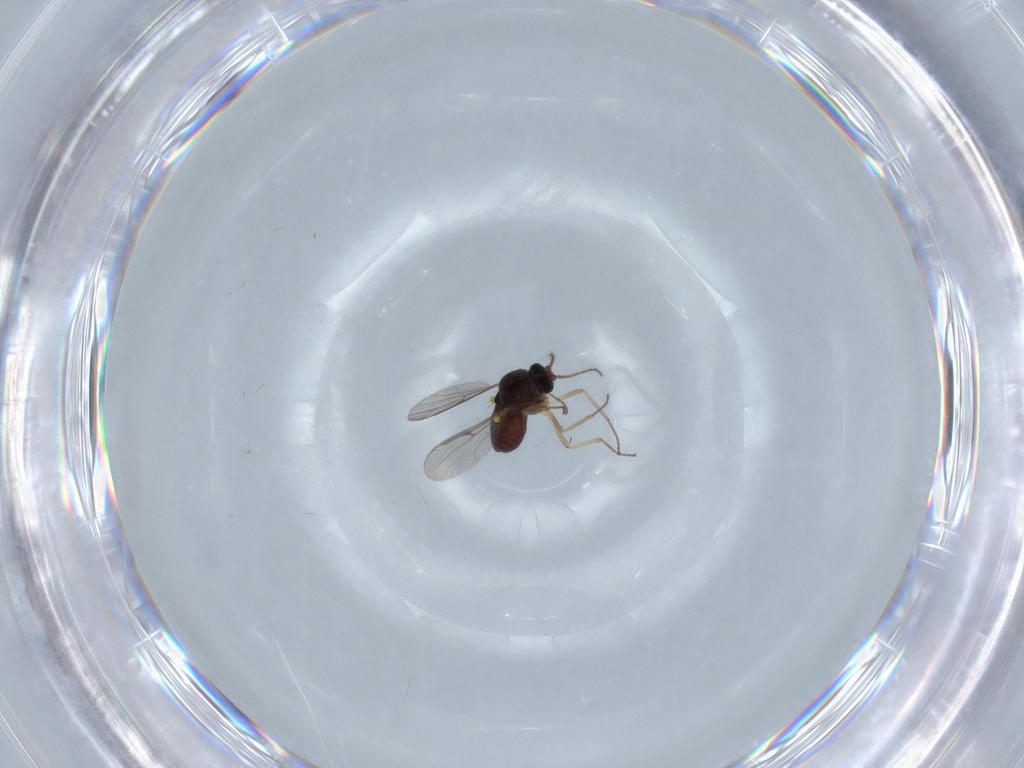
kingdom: Animalia
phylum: Arthropoda
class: Insecta
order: Diptera
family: Ceratopogonidae
